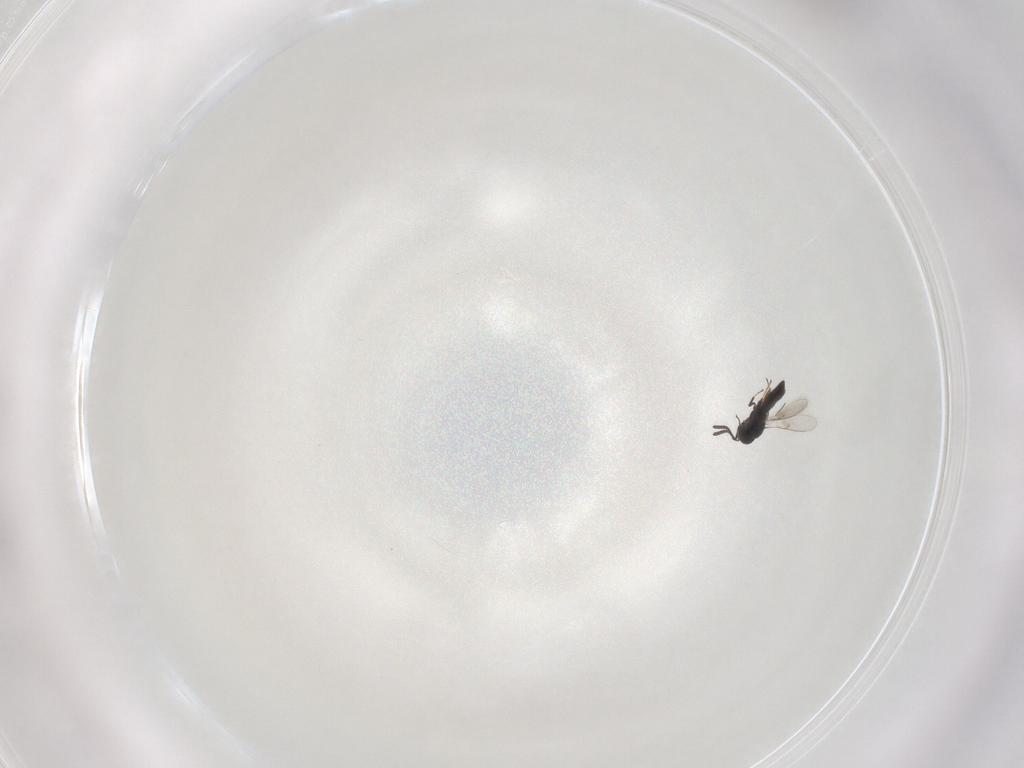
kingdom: Animalia
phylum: Arthropoda
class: Insecta
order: Hymenoptera
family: Scelionidae
